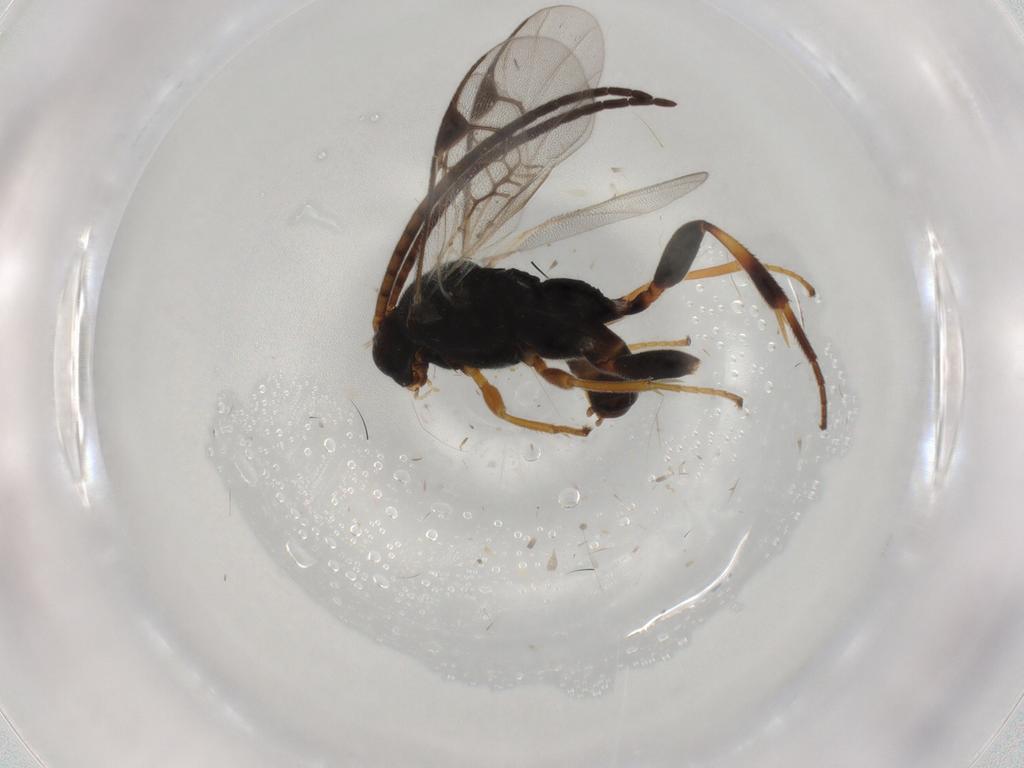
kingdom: Animalia
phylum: Arthropoda
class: Insecta
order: Hymenoptera
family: Braconidae
